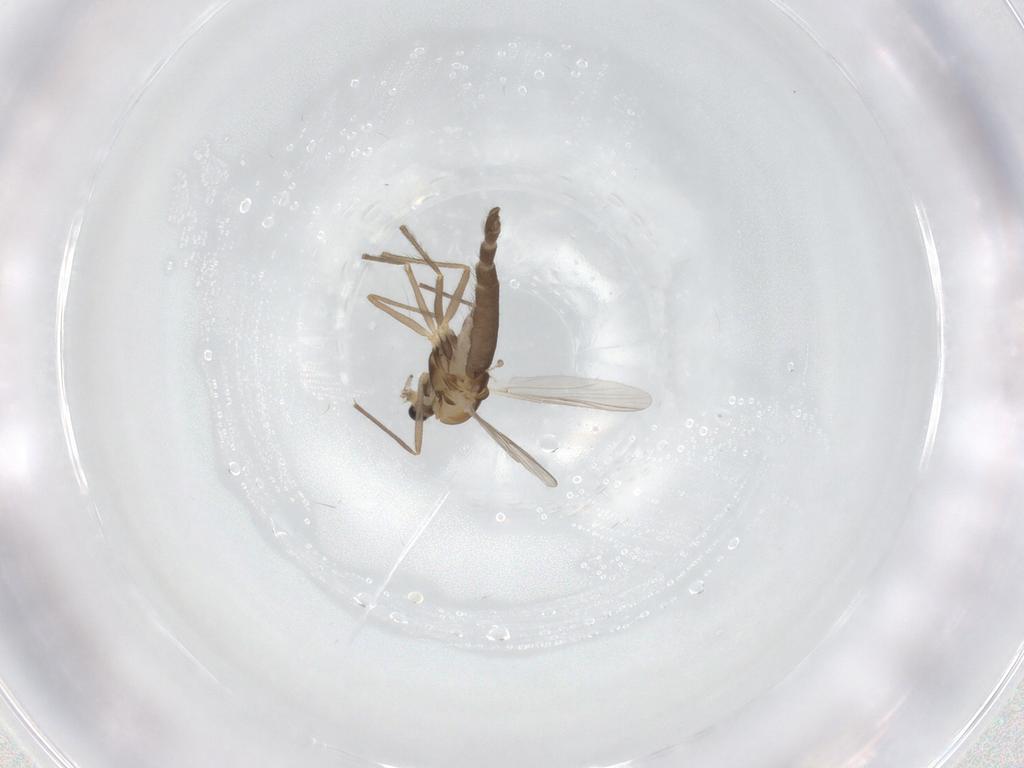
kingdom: Animalia
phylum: Arthropoda
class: Insecta
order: Diptera
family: Chironomidae
